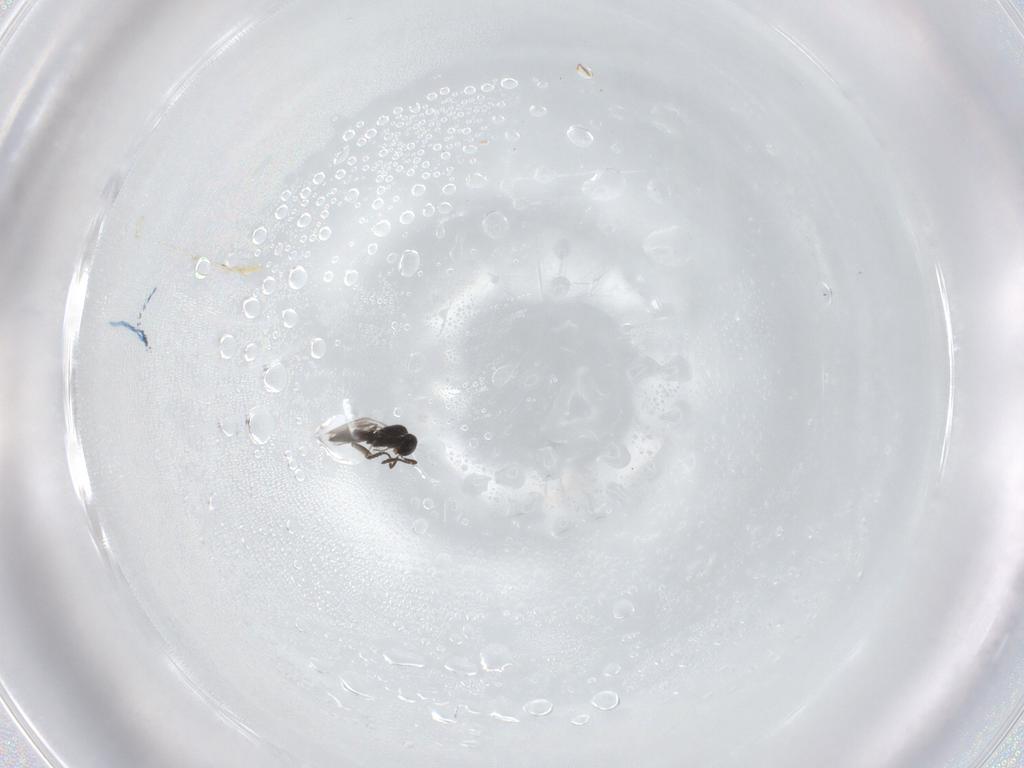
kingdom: Animalia
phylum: Arthropoda
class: Insecta
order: Hymenoptera
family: Scelionidae
